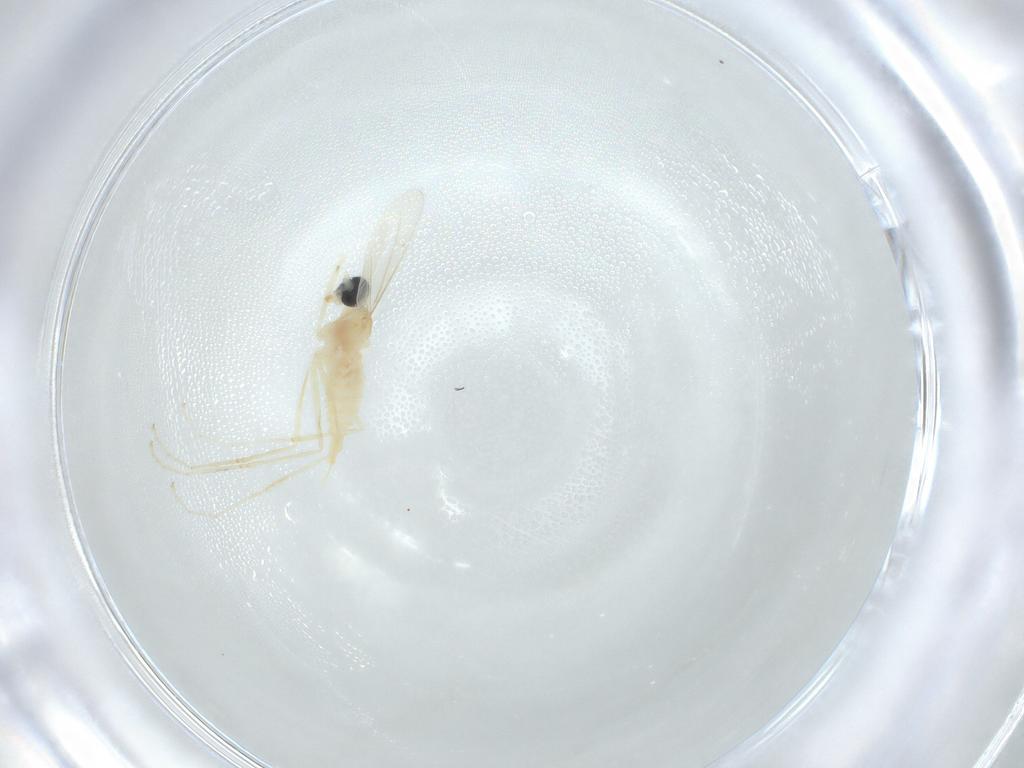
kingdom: Animalia
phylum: Arthropoda
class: Insecta
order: Diptera
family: Cecidomyiidae
